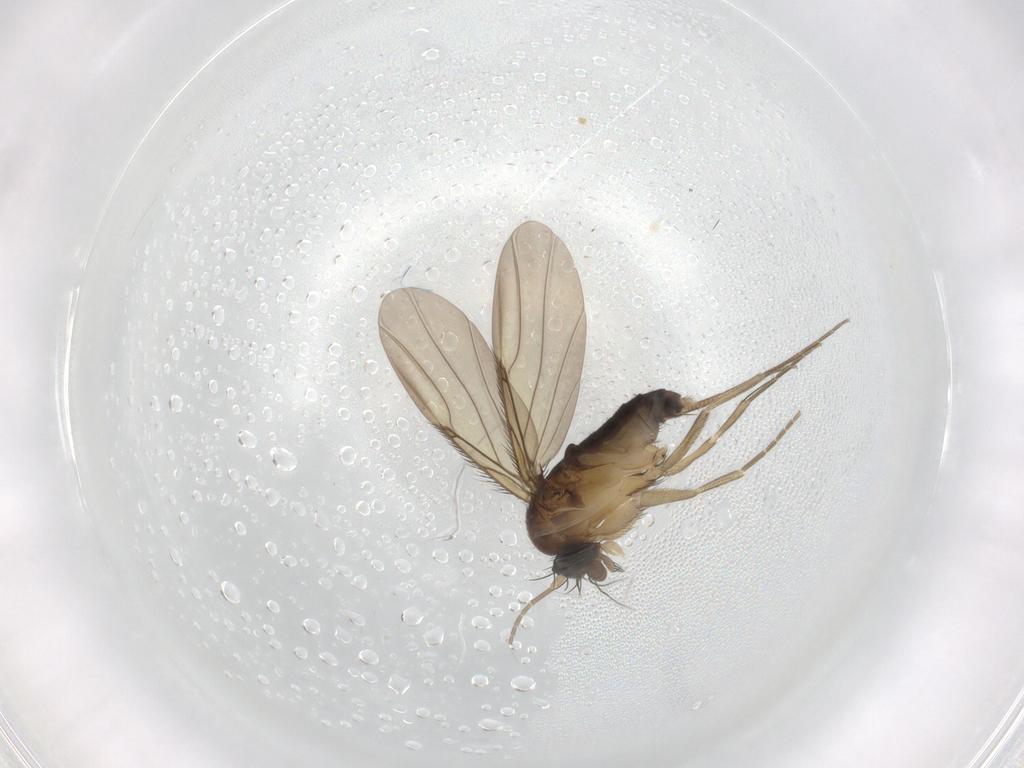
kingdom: Animalia
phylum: Arthropoda
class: Insecta
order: Diptera
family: Phoridae
